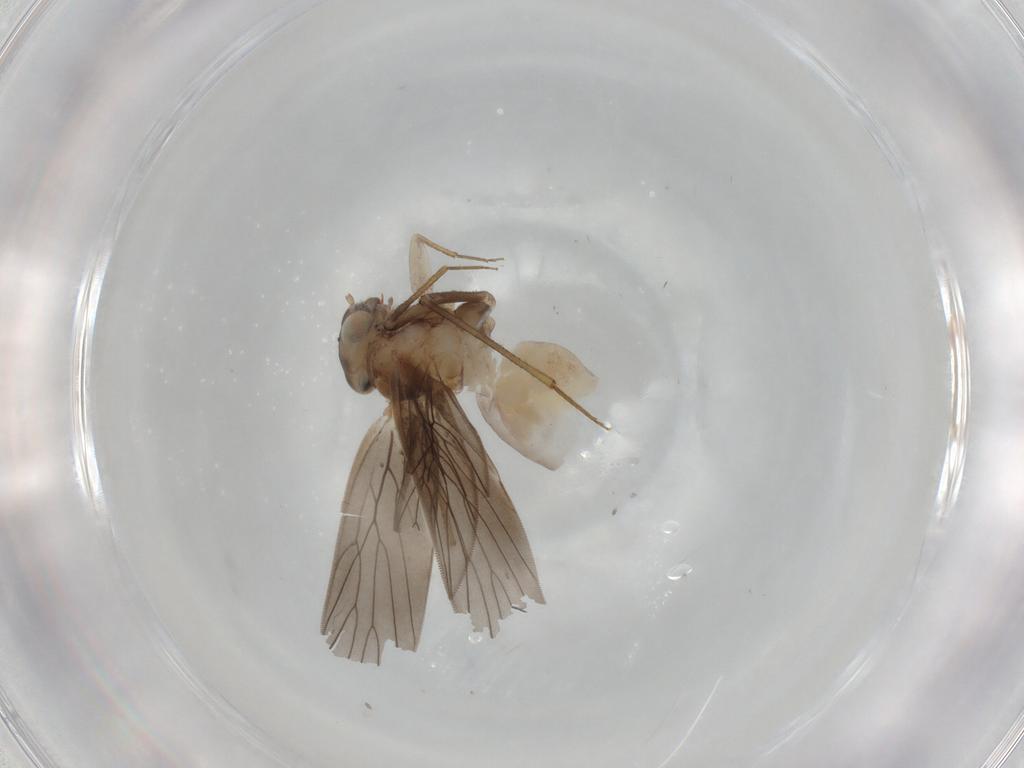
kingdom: Animalia
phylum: Arthropoda
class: Insecta
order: Psocodea
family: Lepidopsocidae
